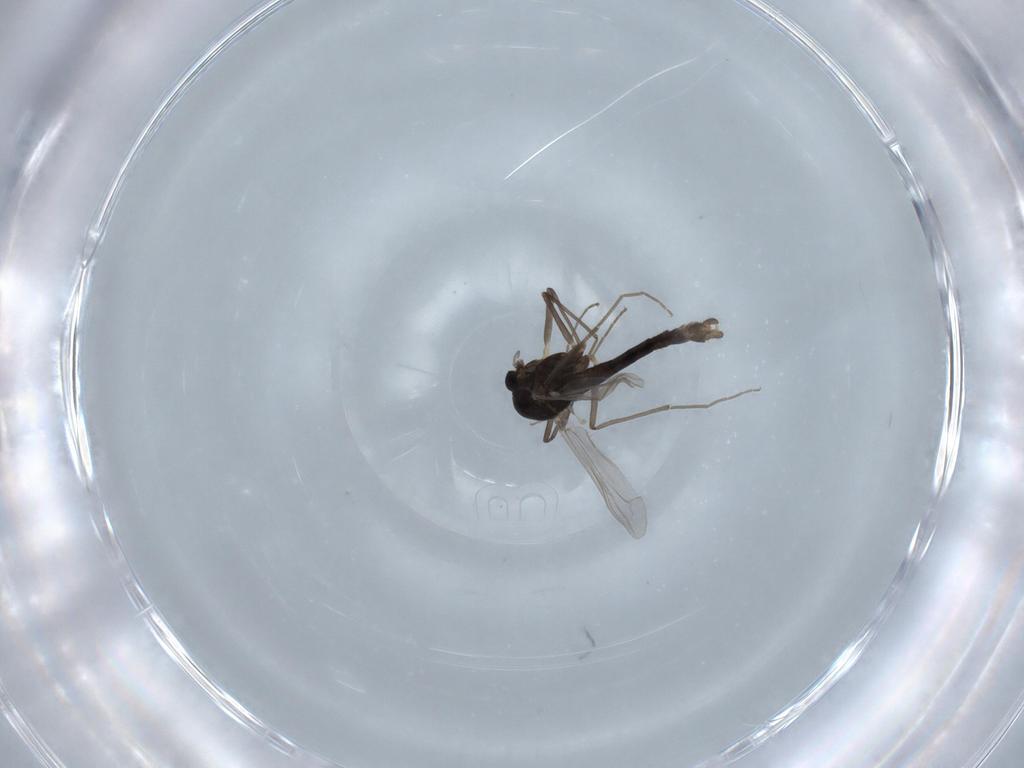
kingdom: Animalia
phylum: Arthropoda
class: Insecta
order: Diptera
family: Chironomidae
